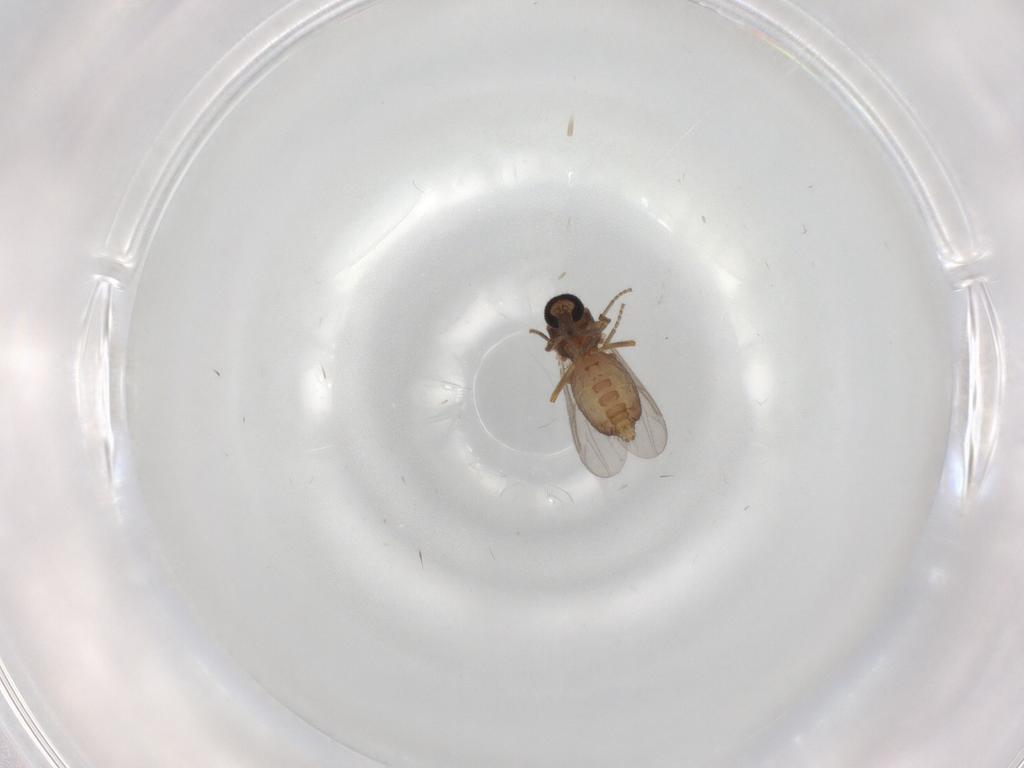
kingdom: Animalia
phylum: Arthropoda
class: Insecta
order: Diptera
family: Ceratopogonidae
